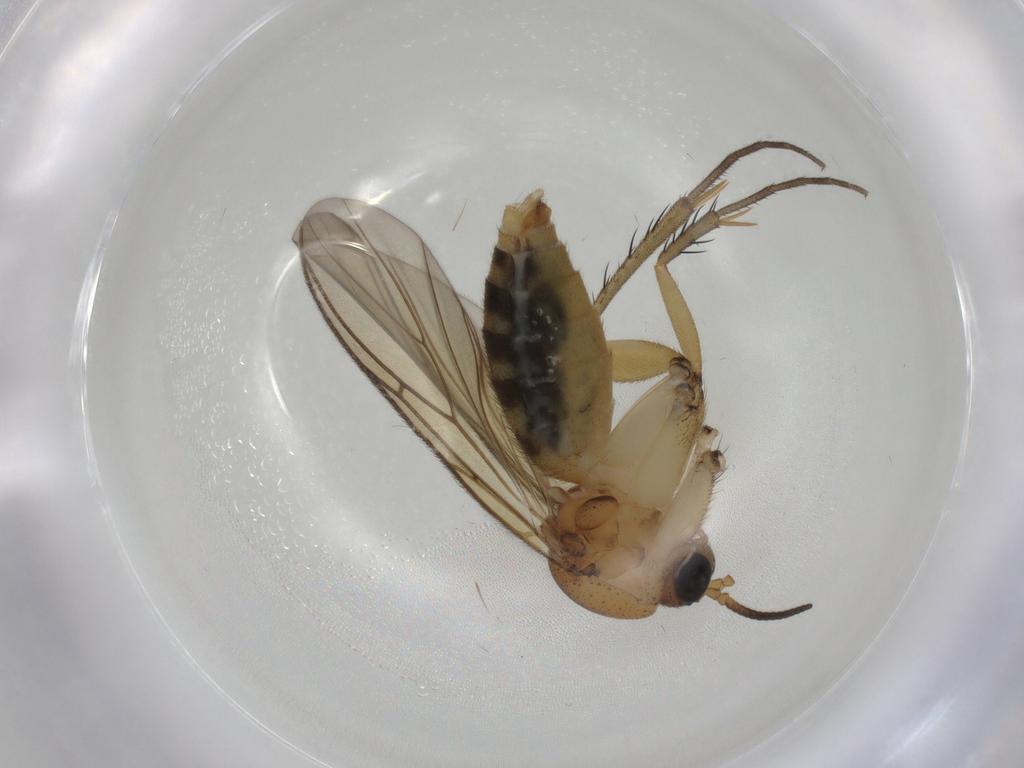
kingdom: Animalia
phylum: Arthropoda
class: Insecta
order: Diptera
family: Mycetophilidae
